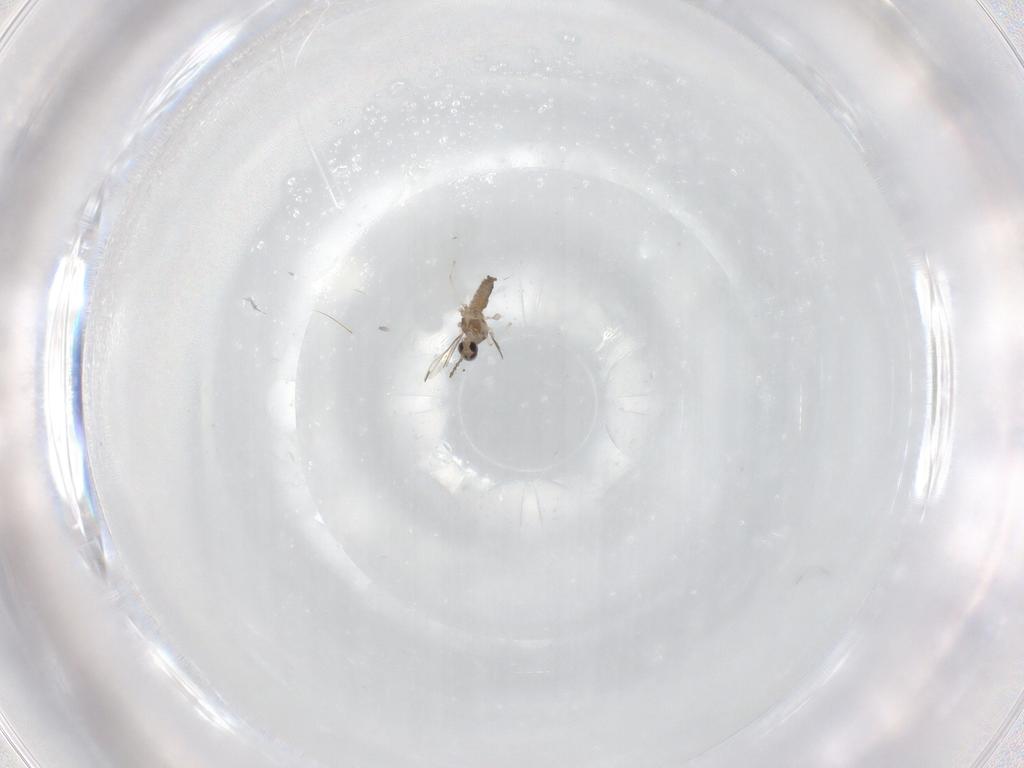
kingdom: Animalia
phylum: Arthropoda
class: Insecta
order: Diptera
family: Cecidomyiidae
